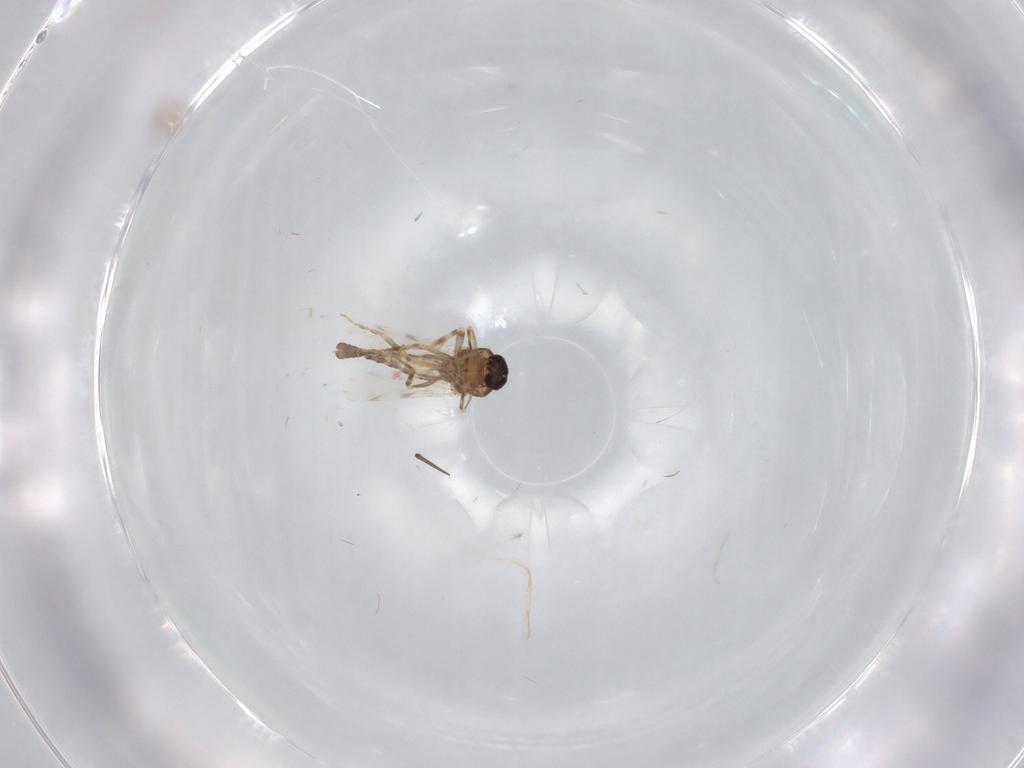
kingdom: Animalia
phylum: Arthropoda
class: Insecta
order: Diptera
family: Ceratopogonidae
